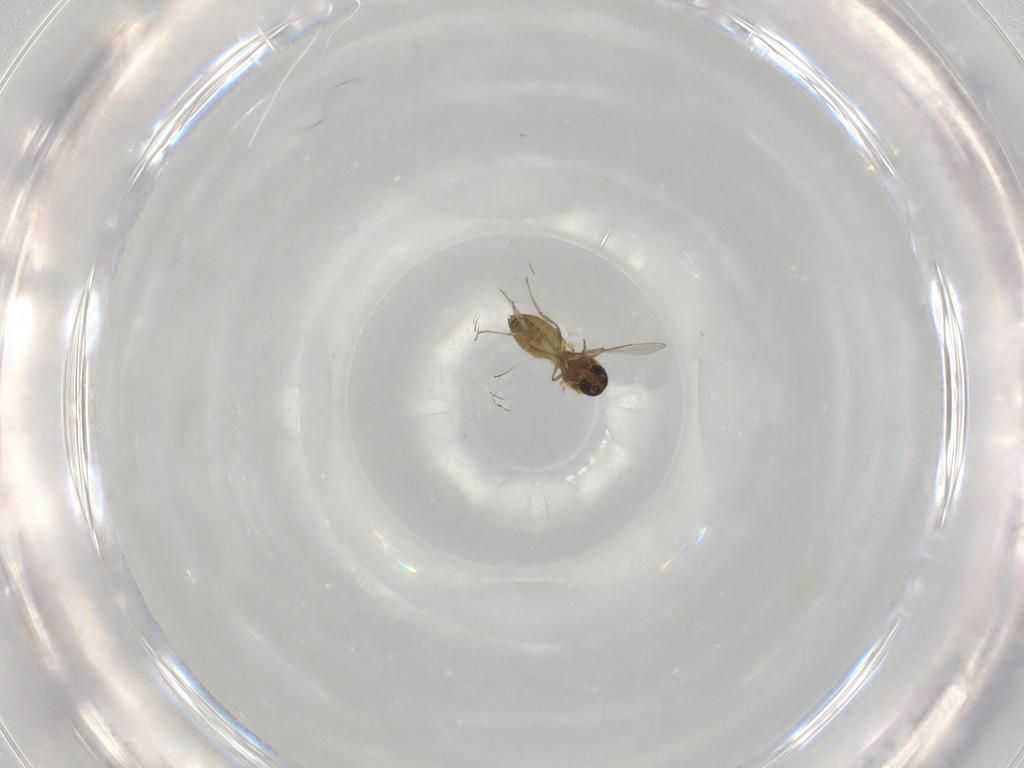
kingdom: Animalia
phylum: Arthropoda
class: Insecta
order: Diptera
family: Ceratopogonidae
